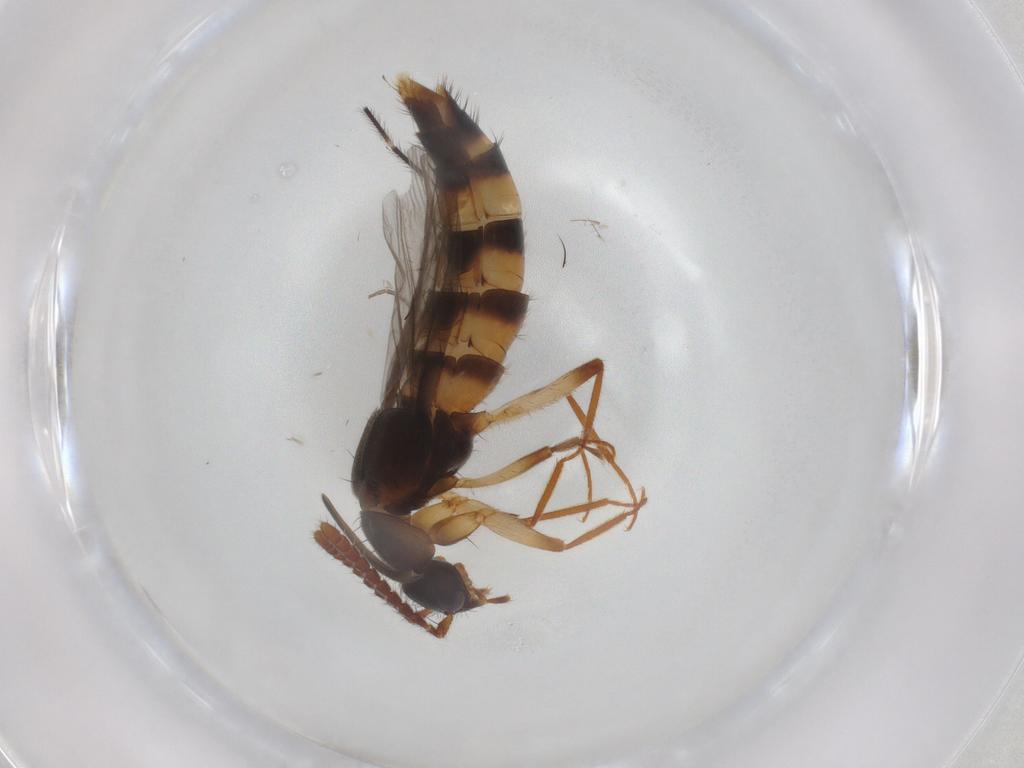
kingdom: Animalia
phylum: Arthropoda
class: Insecta
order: Coleoptera
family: Staphylinidae
